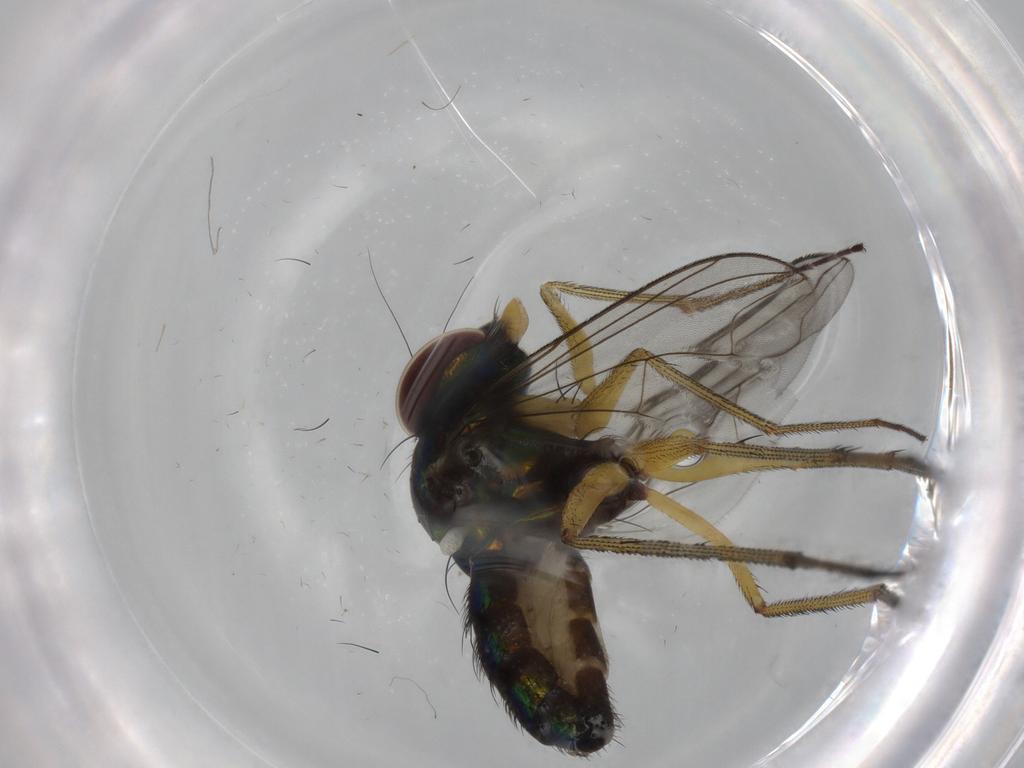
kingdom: Animalia
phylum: Arthropoda
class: Insecta
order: Diptera
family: Dolichopodidae
